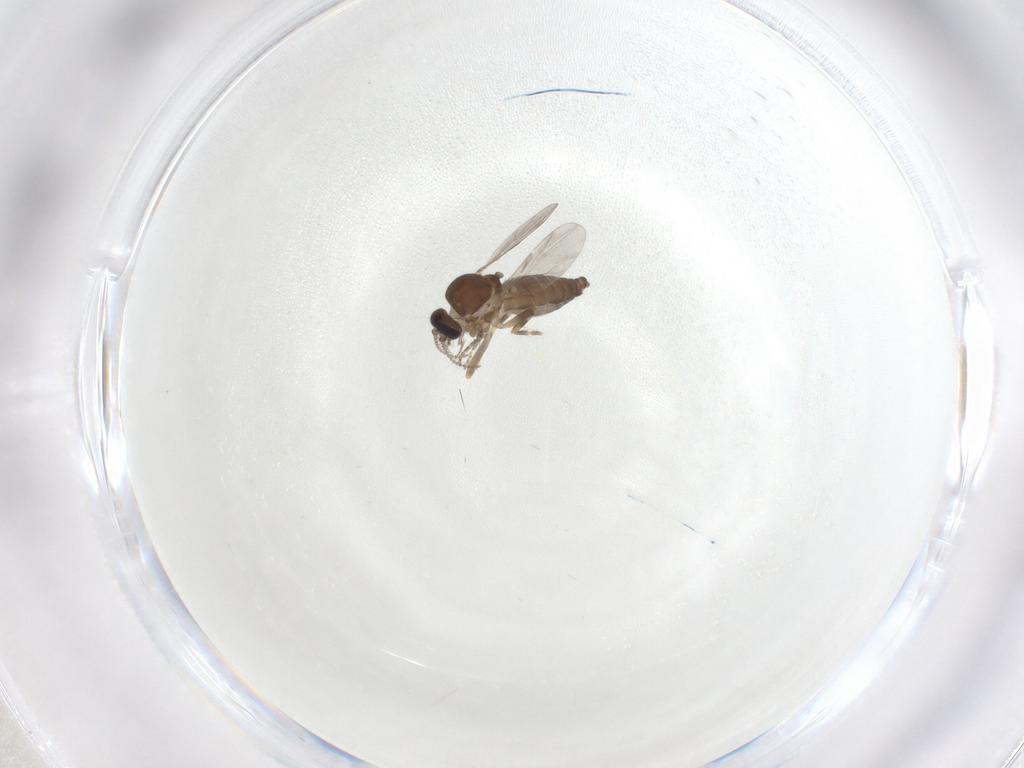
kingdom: Animalia
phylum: Arthropoda
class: Insecta
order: Diptera
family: Ceratopogonidae
